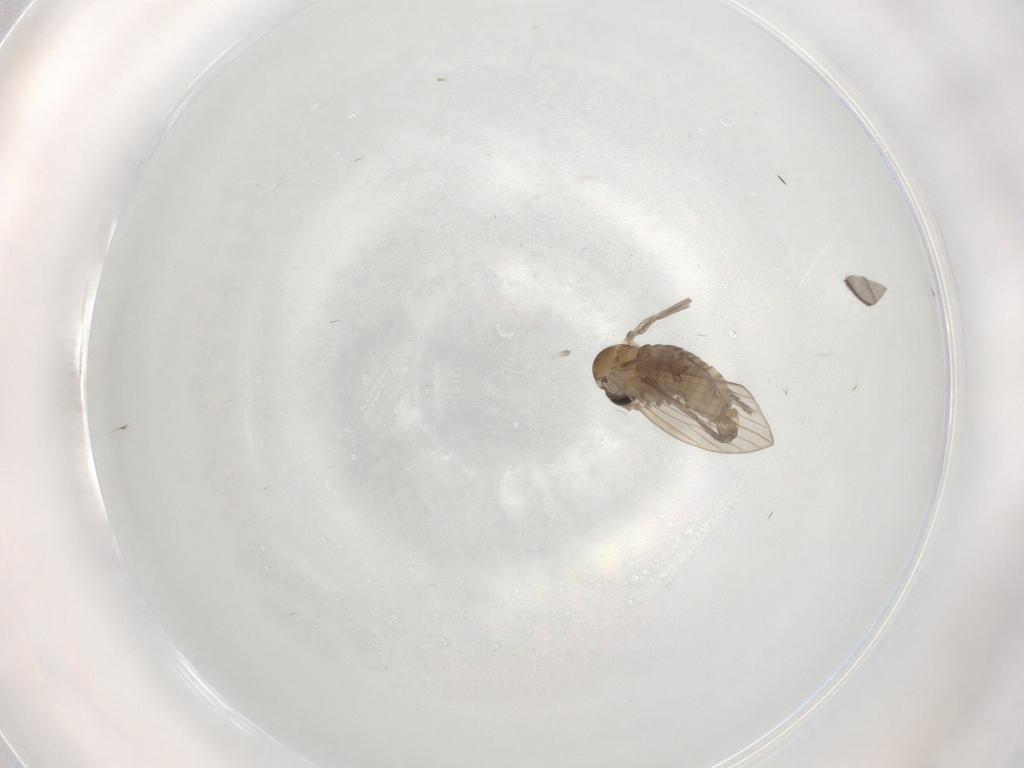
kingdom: Animalia
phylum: Arthropoda
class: Insecta
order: Diptera
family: Psychodidae
